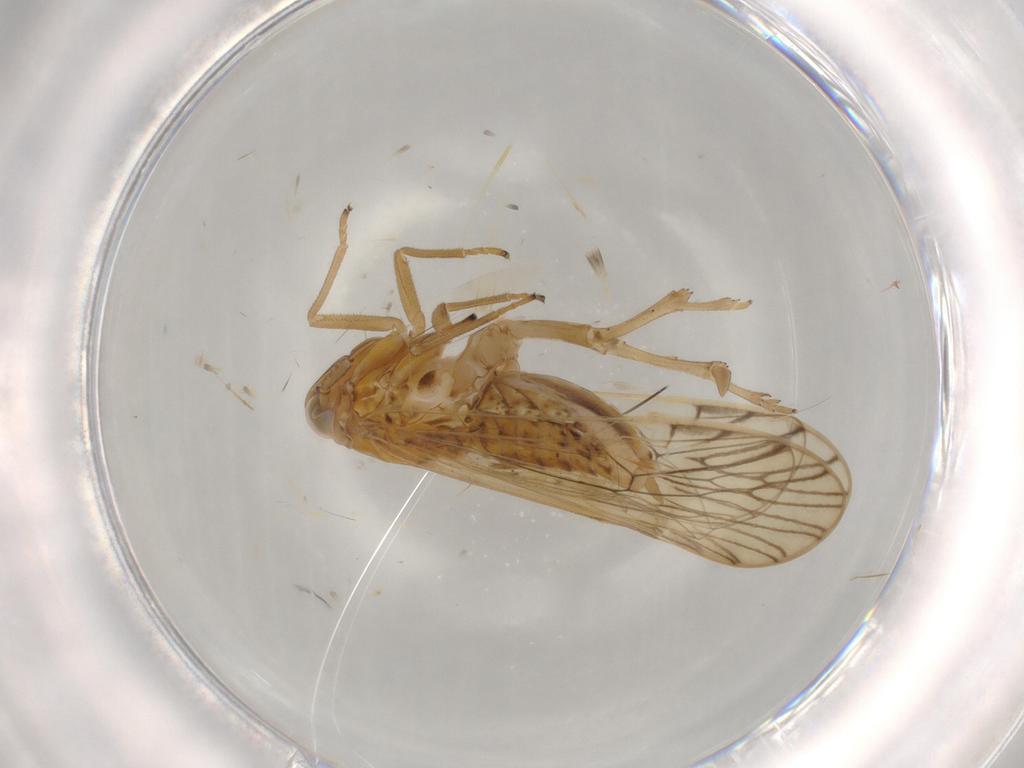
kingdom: Animalia
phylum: Arthropoda
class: Insecta
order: Hemiptera
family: Delphacidae
